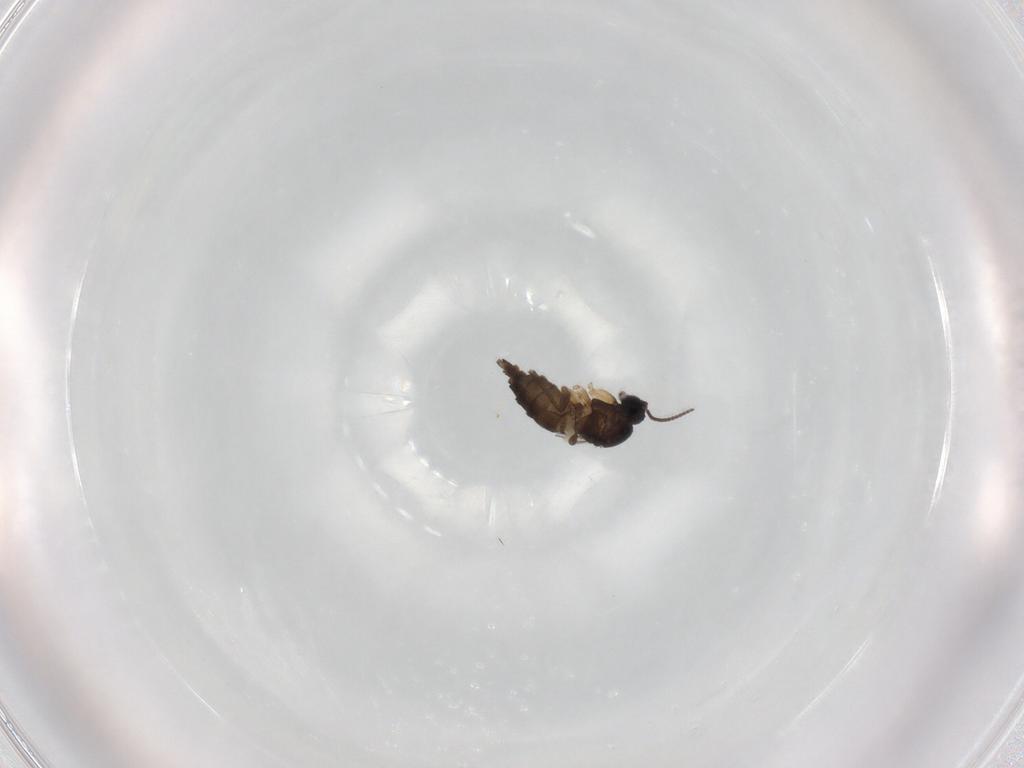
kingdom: Animalia
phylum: Arthropoda
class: Insecta
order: Diptera
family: Sciaridae
